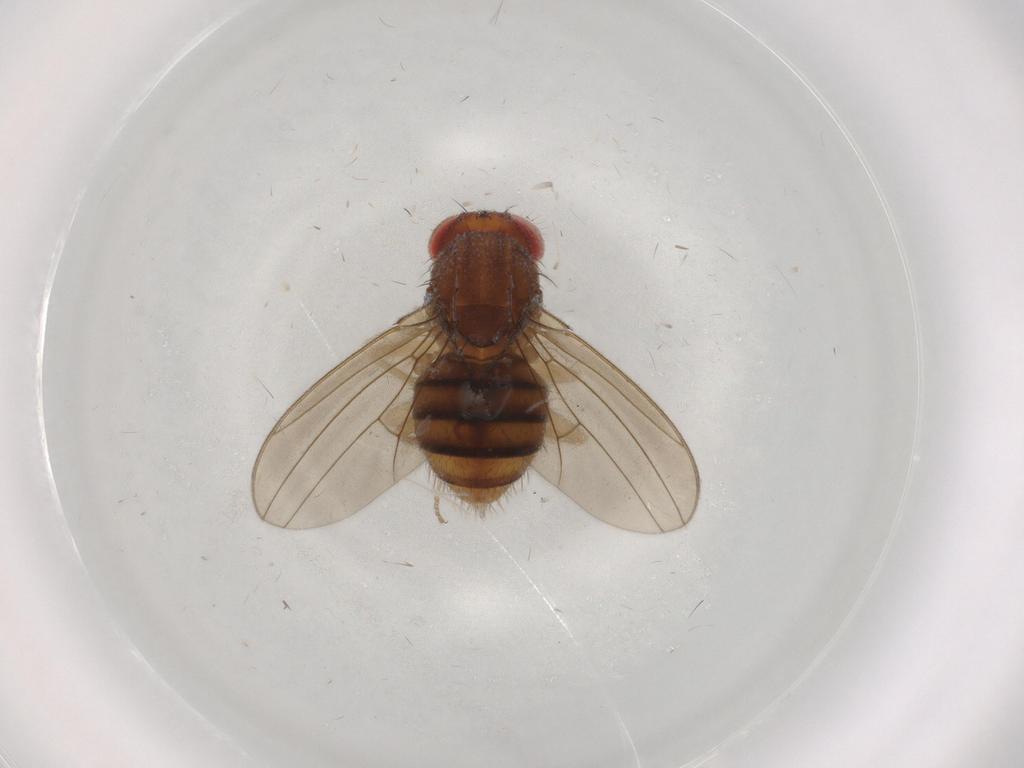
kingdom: Animalia
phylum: Arthropoda
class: Insecta
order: Diptera
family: Drosophilidae
